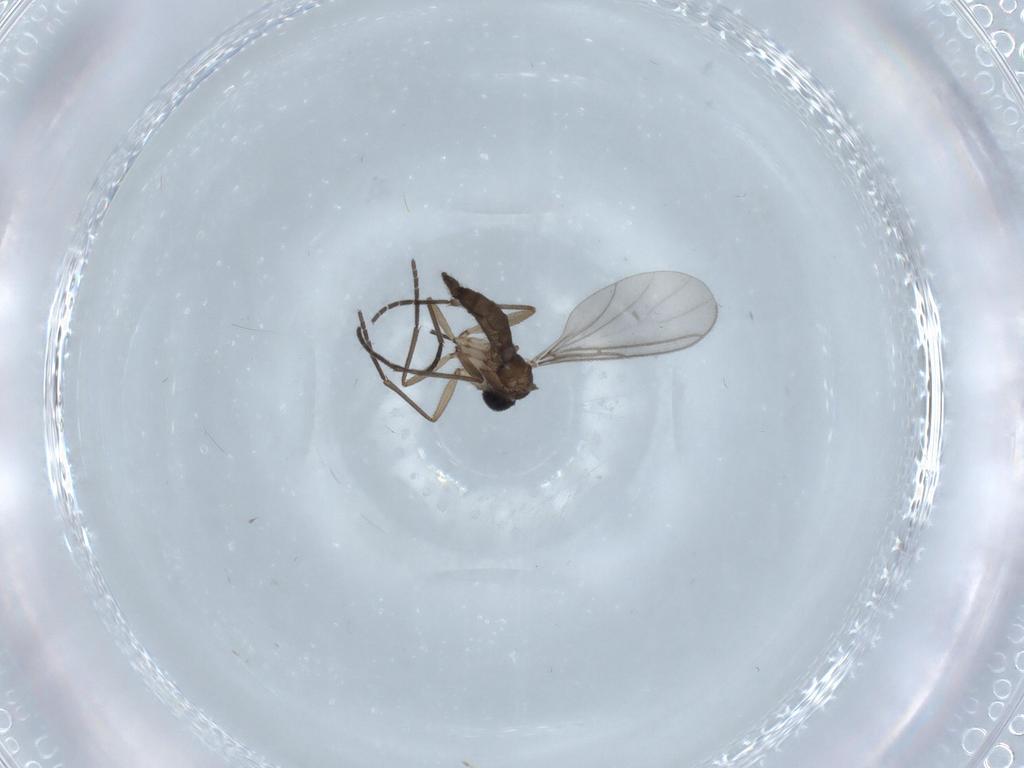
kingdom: Animalia
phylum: Arthropoda
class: Insecta
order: Diptera
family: Sciaridae
